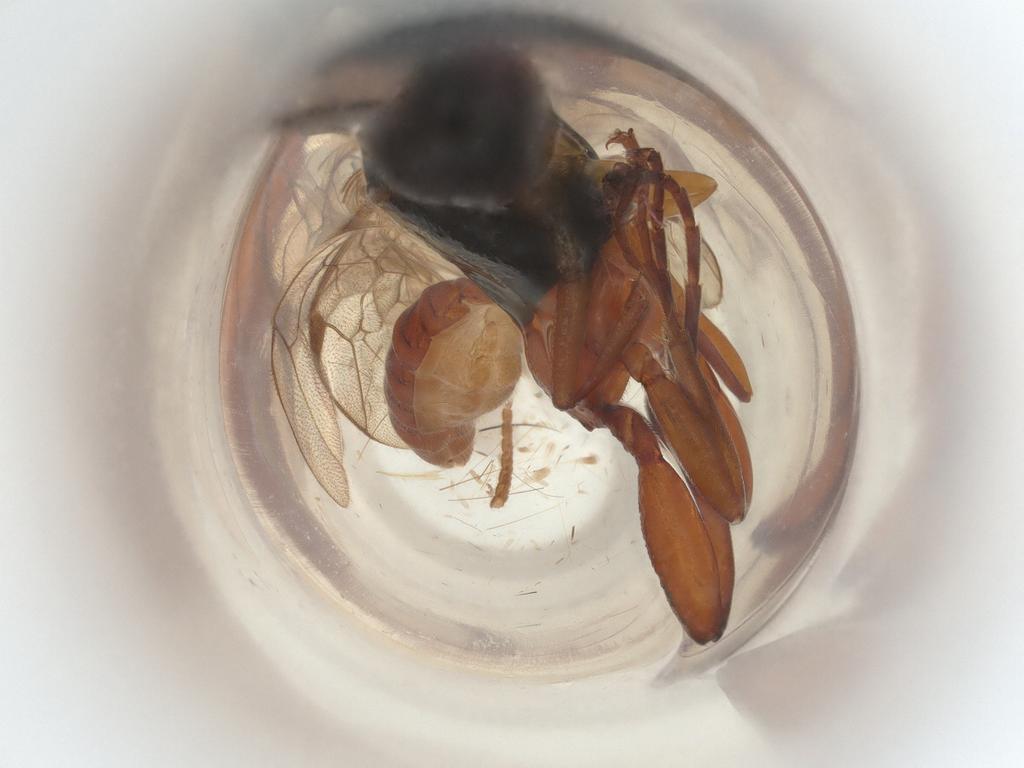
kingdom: Animalia
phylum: Arthropoda
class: Insecta
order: Hymenoptera
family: Ichneumonidae
